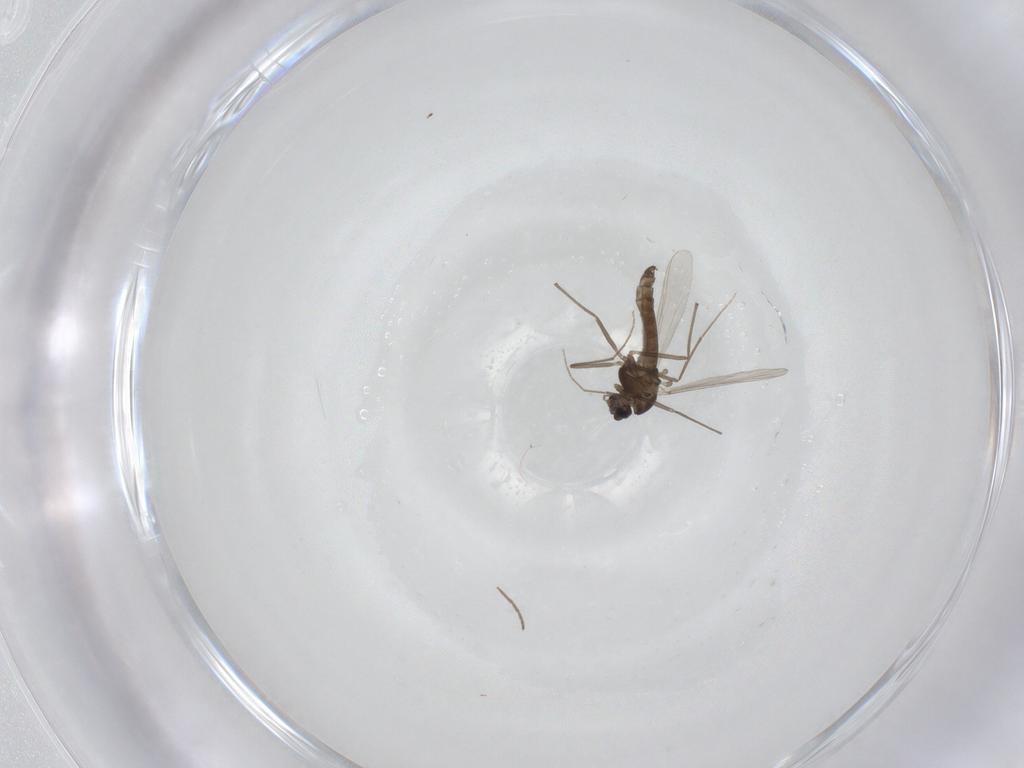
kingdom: Animalia
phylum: Arthropoda
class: Insecta
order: Diptera
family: Chironomidae
